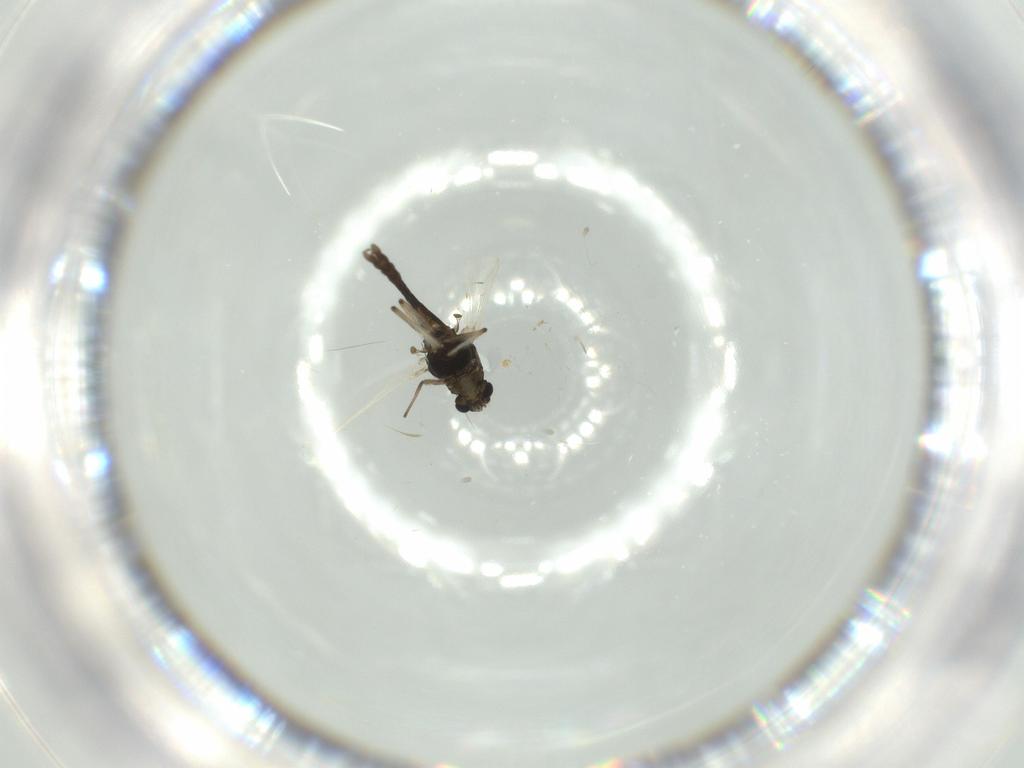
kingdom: Animalia
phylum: Arthropoda
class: Insecta
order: Diptera
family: Chironomidae
